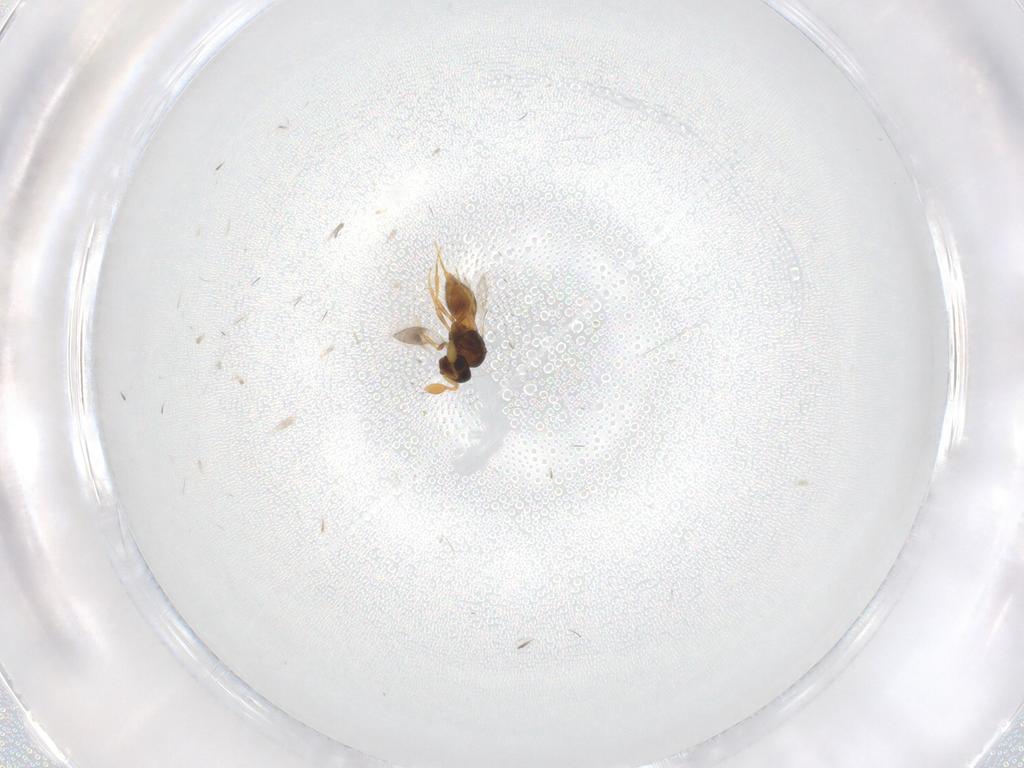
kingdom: Animalia
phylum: Arthropoda
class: Insecta
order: Hymenoptera
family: Scelionidae
